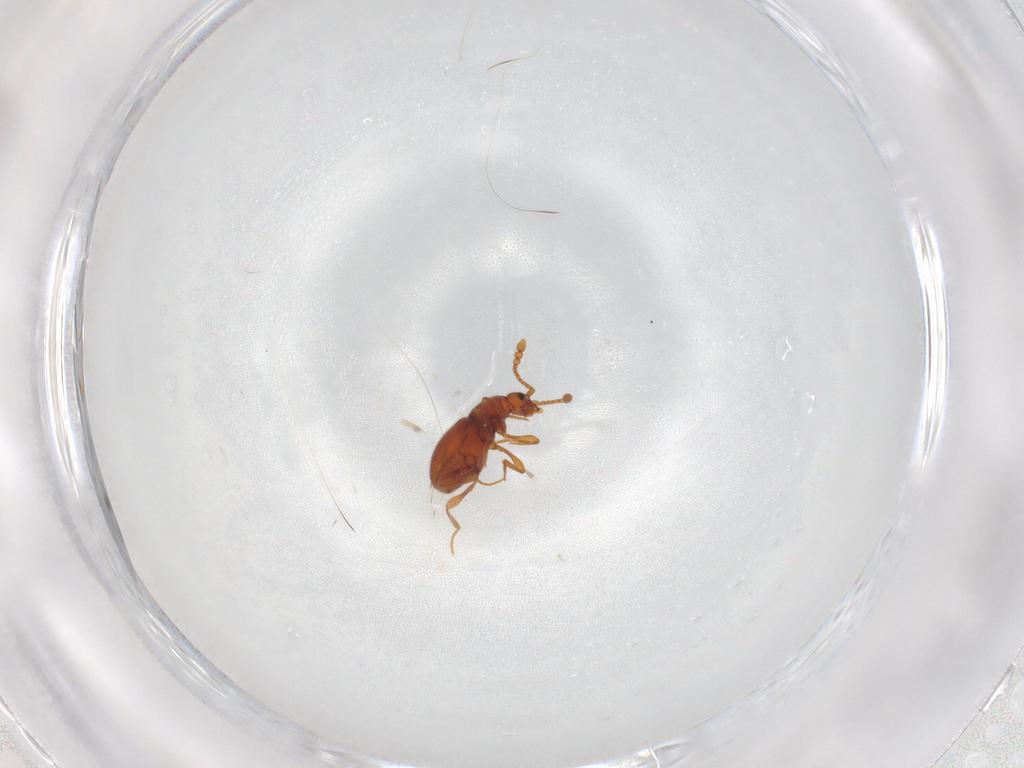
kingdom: Animalia
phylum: Arthropoda
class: Insecta
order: Coleoptera
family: Staphylinidae
